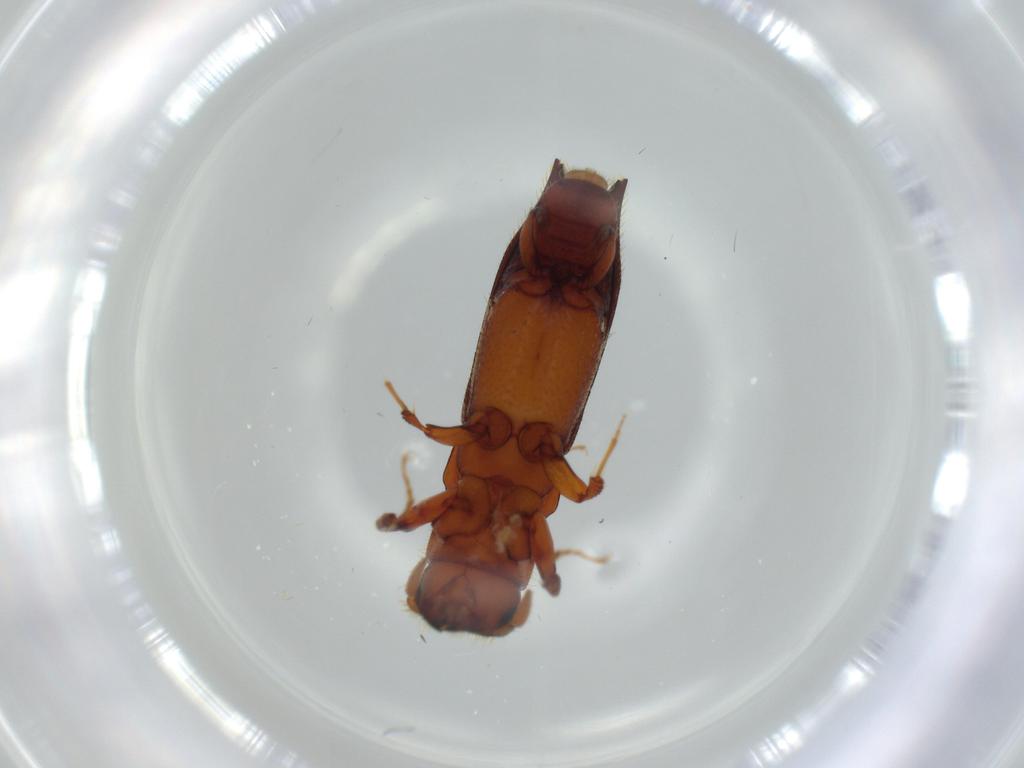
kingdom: Animalia
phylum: Arthropoda
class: Insecta
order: Coleoptera
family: Curculionidae
